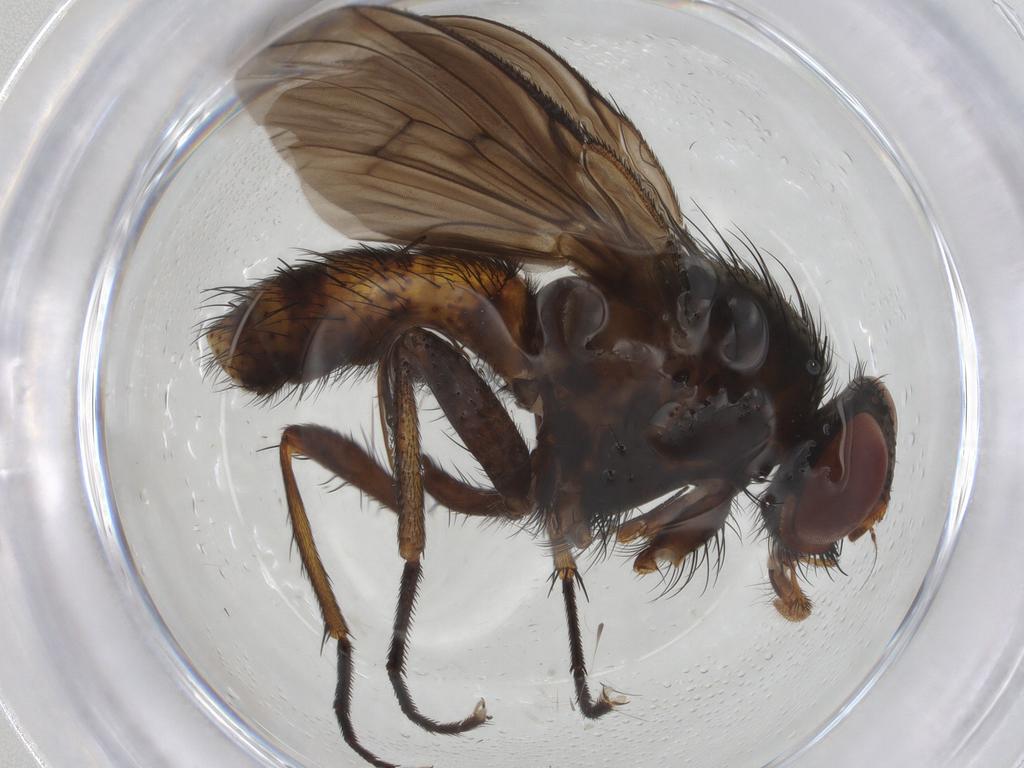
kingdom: Animalia
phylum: Arthropoda
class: Insecta
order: Diptera
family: Muscidae
